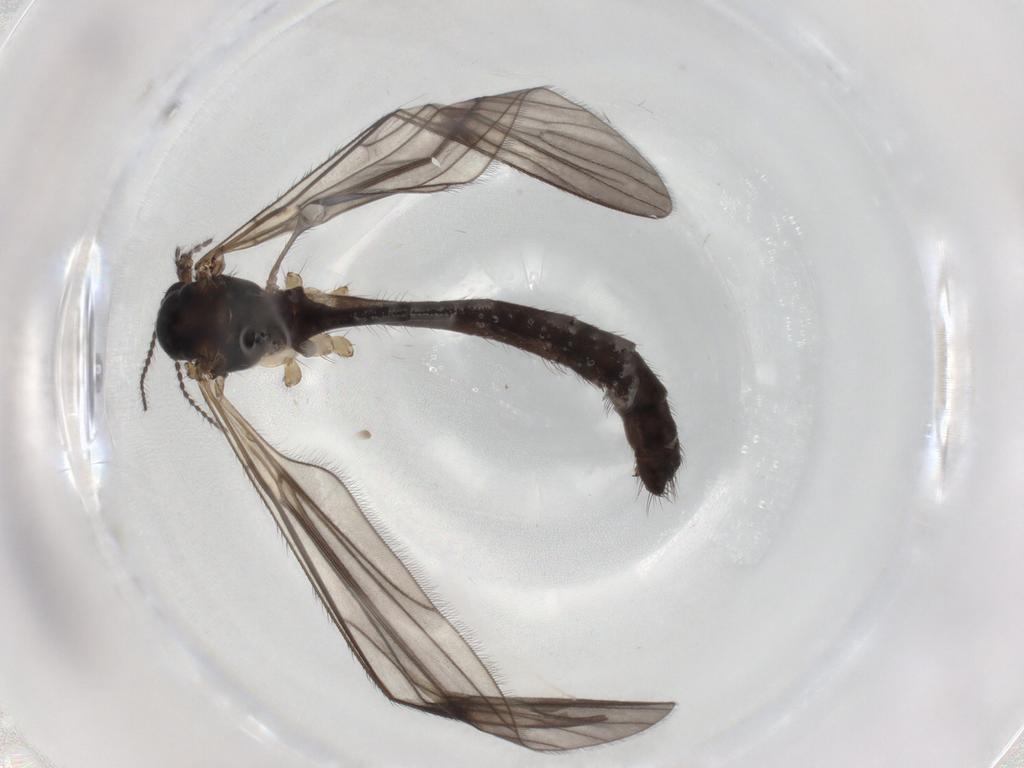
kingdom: Animalia
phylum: Arthropoda
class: Insecta
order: Diptera
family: Limoniidae
